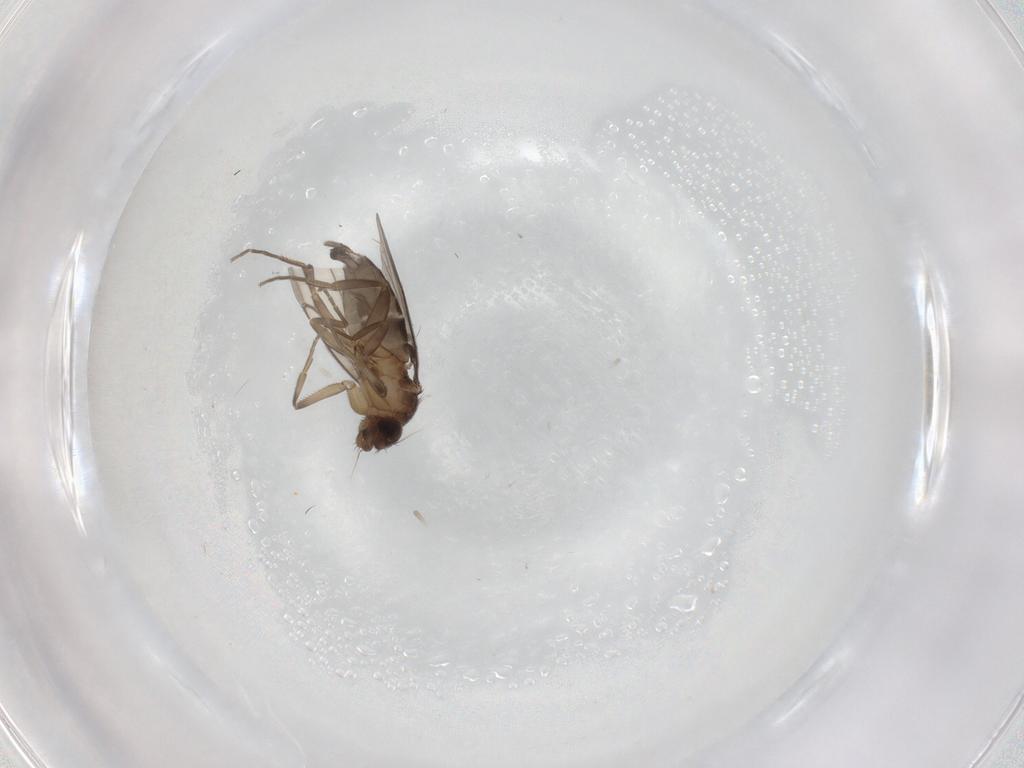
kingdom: Animalia
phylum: Arthropoda
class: Insecta
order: Diptera
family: Phoridae
